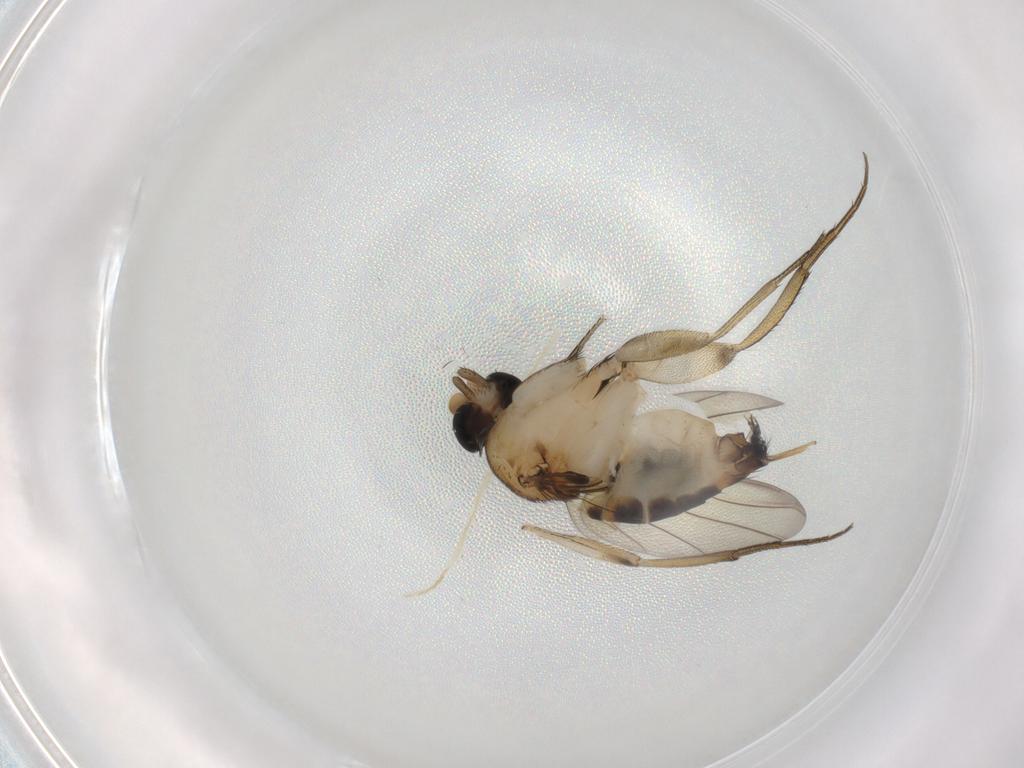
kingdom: Animalia
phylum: Arthropoda
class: Insecta
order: Diptera
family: Phoridae
